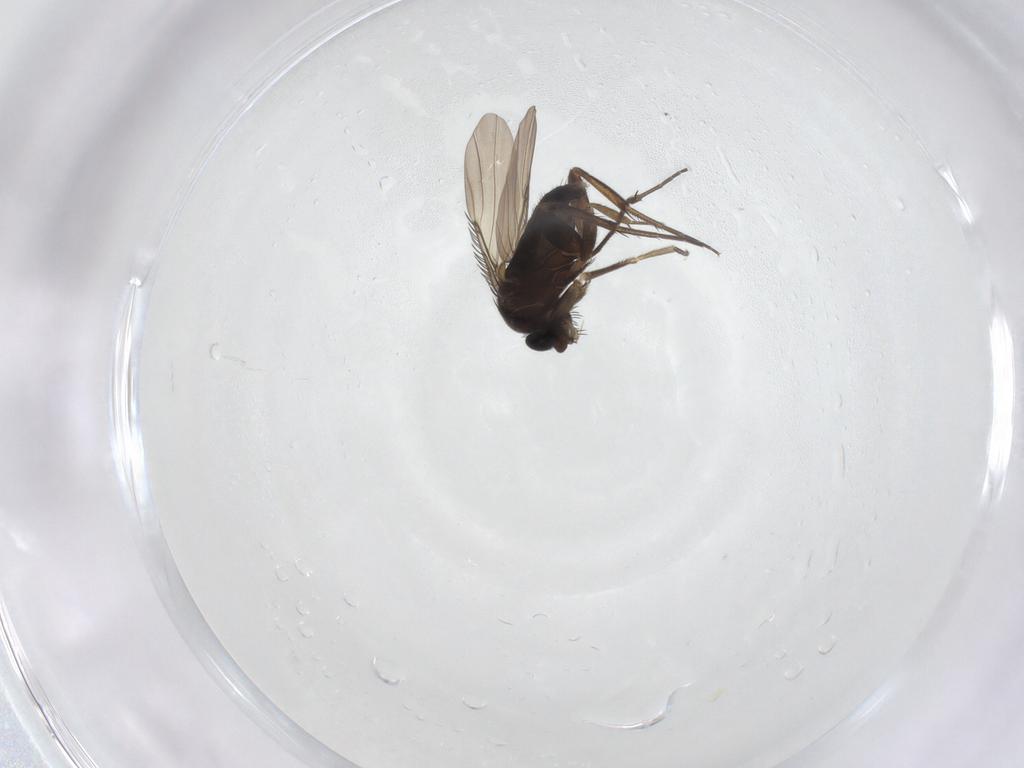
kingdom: Animalia
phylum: Arthropoda
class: Insecta
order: Diptera
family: Phoridae
